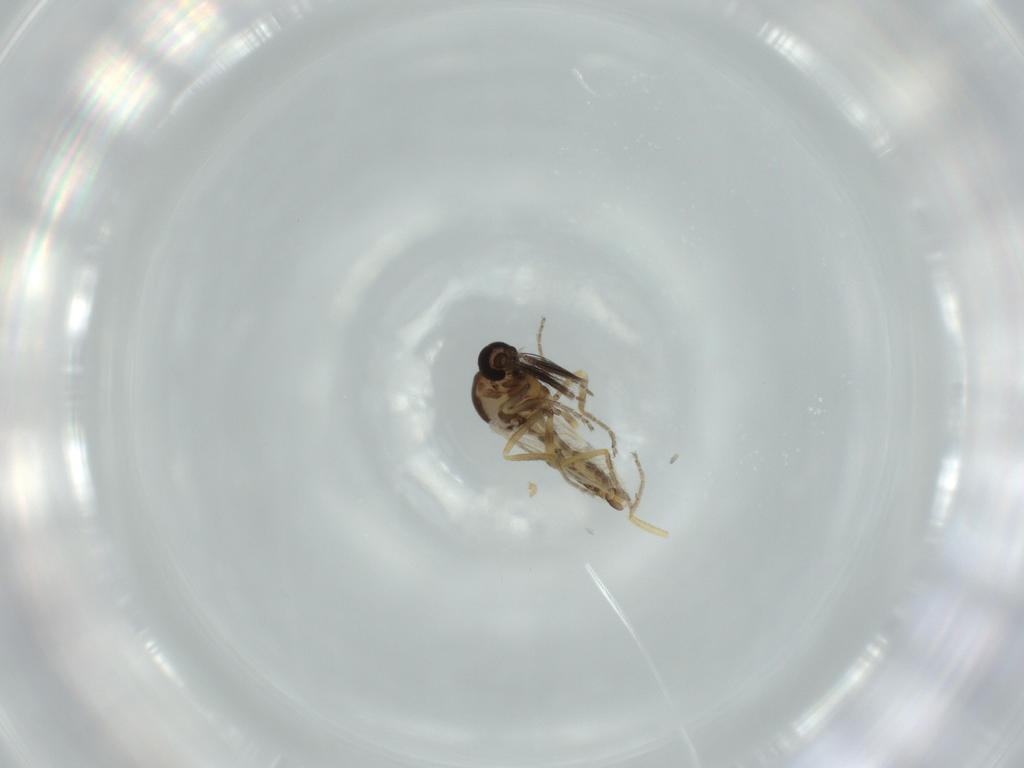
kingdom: Animalia
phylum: Arthropoda
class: Insecta
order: Diptera
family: Ceratopogonidae
